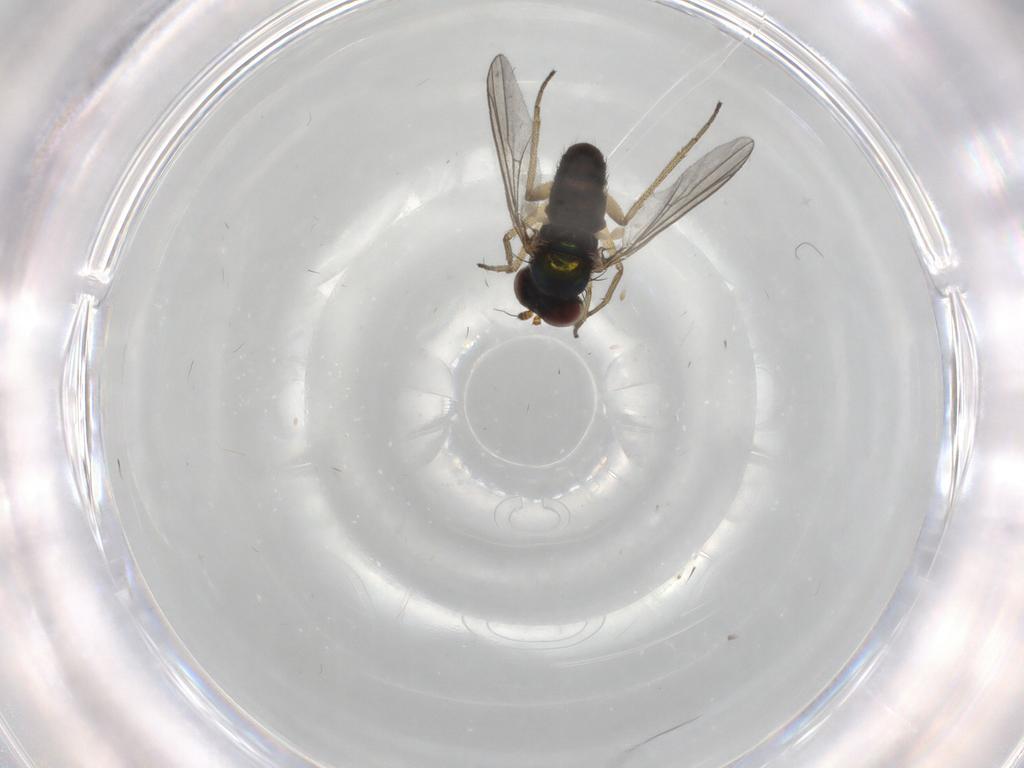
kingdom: Animalia
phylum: Arthropoda
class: Insecta
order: Diptera
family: Dolichopodidae
